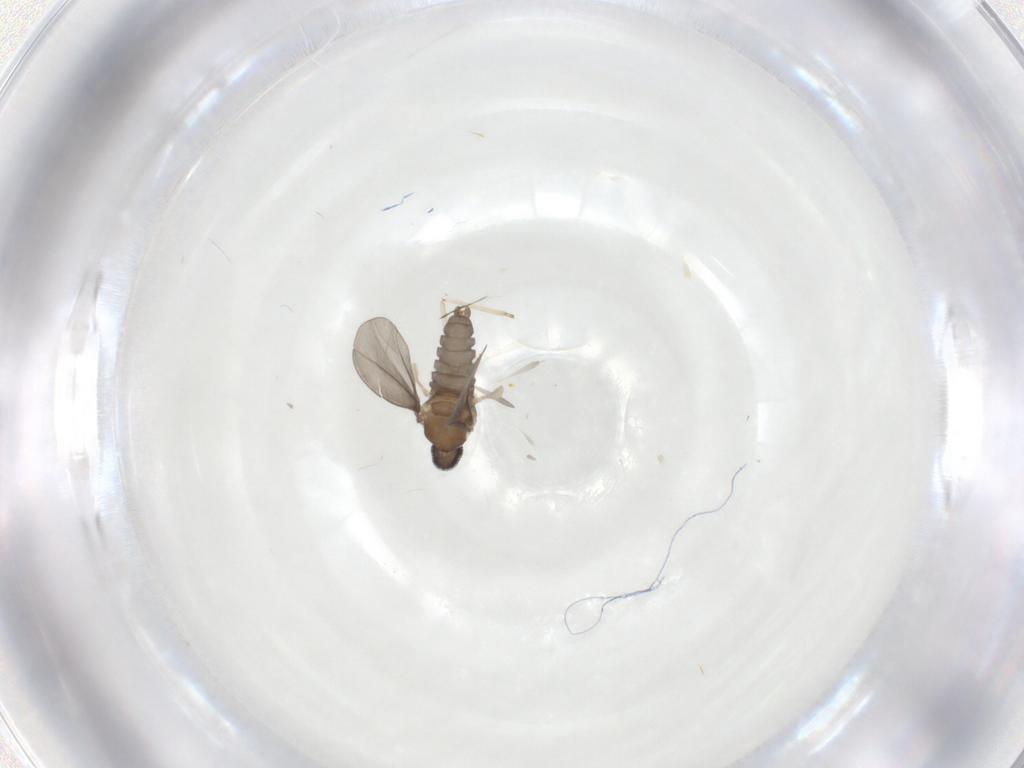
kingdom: Animalia
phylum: Arthropoda
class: Insecta
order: Diptera
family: Cecidomyiidae
